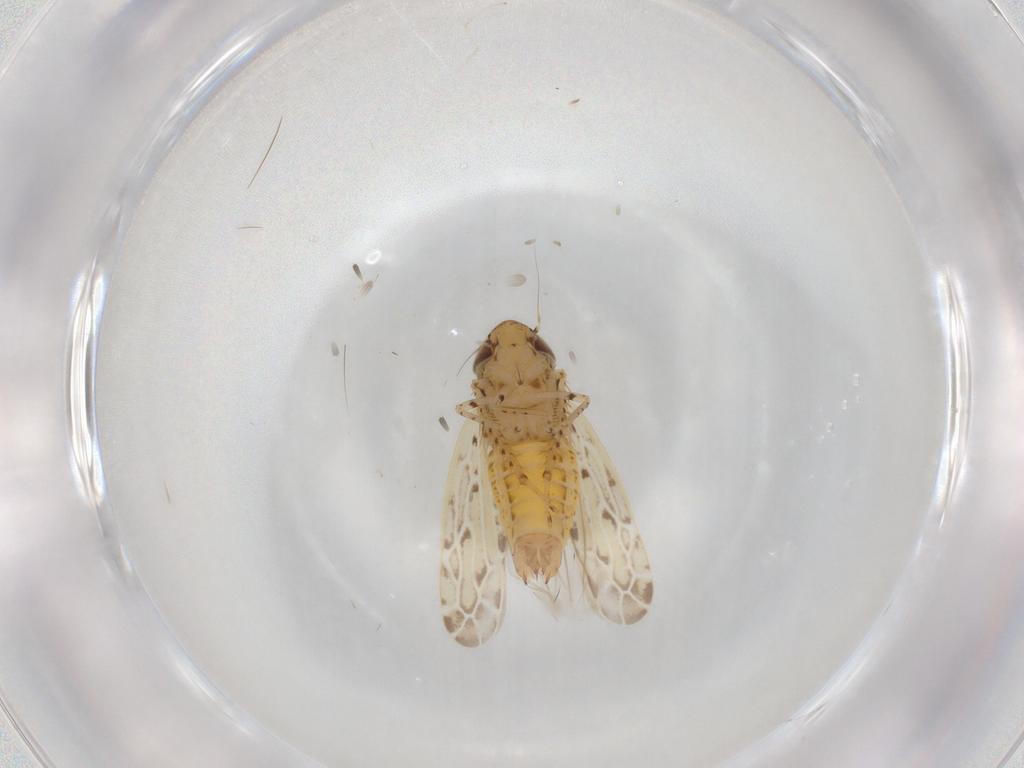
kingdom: Animalia
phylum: Arthropoda
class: Insecta
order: Hemiptera
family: Cicadellidae
